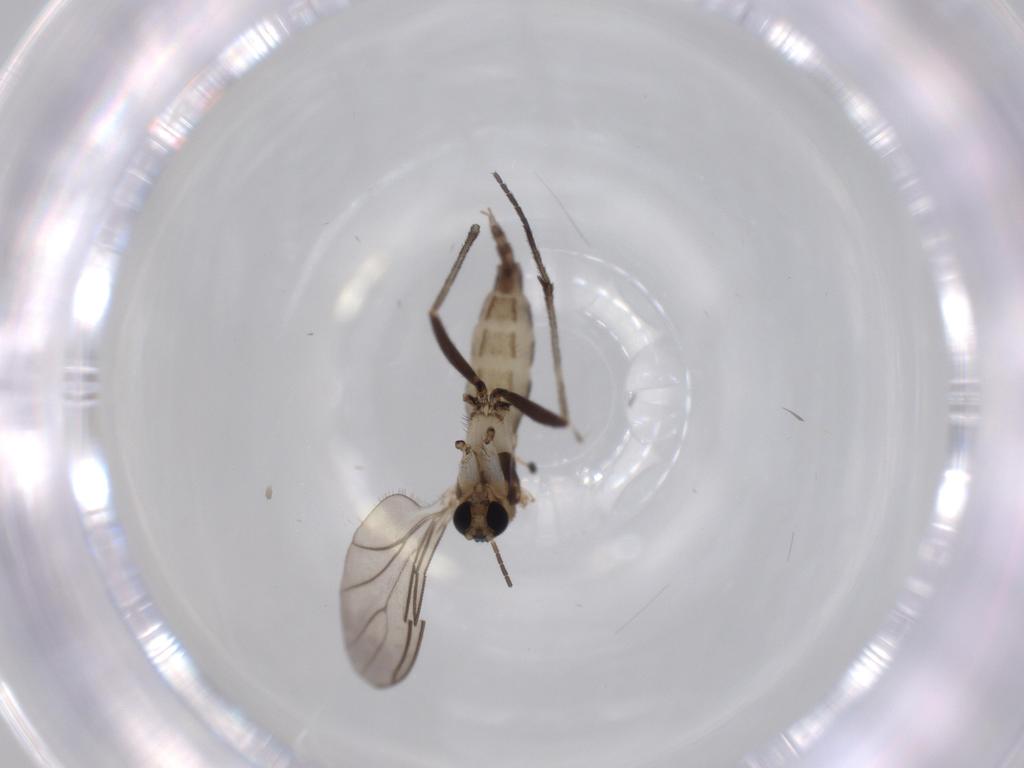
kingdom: Animalia
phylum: Arthropoda
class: Insecta
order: Diptera
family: Sciaridae
